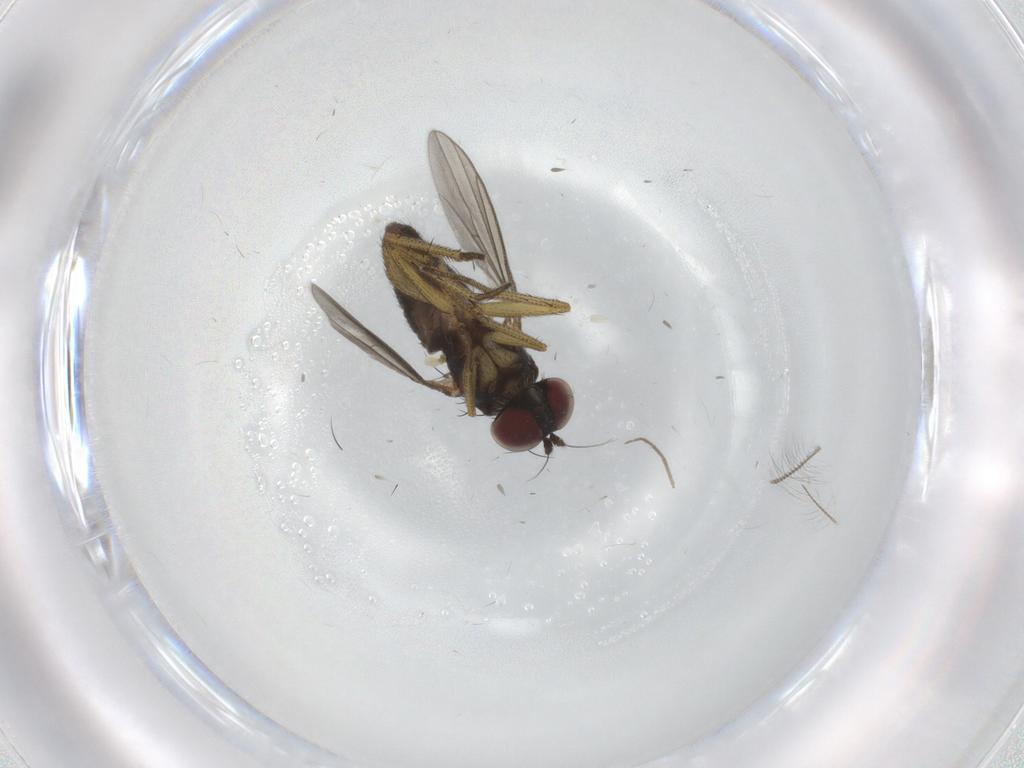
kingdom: Animalia
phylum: Arthropoda
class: Insecta
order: Diptera
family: Chironomidae
